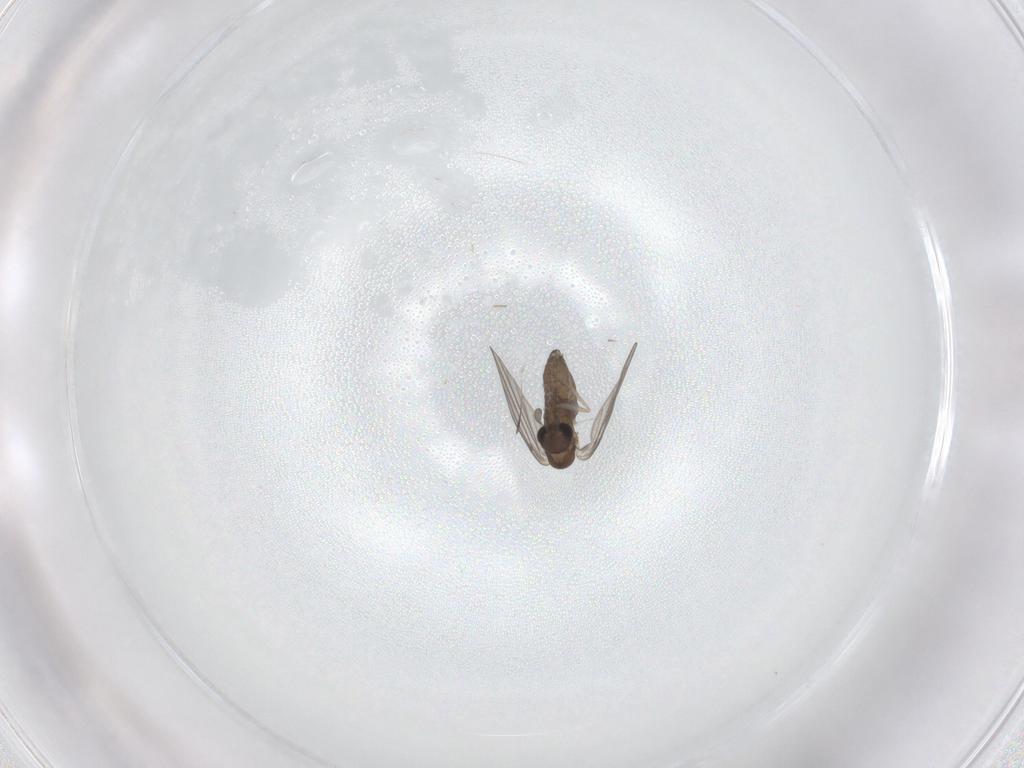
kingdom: Animalia
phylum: Arthropoda
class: Insecta
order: Diptera
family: Psychodidae
